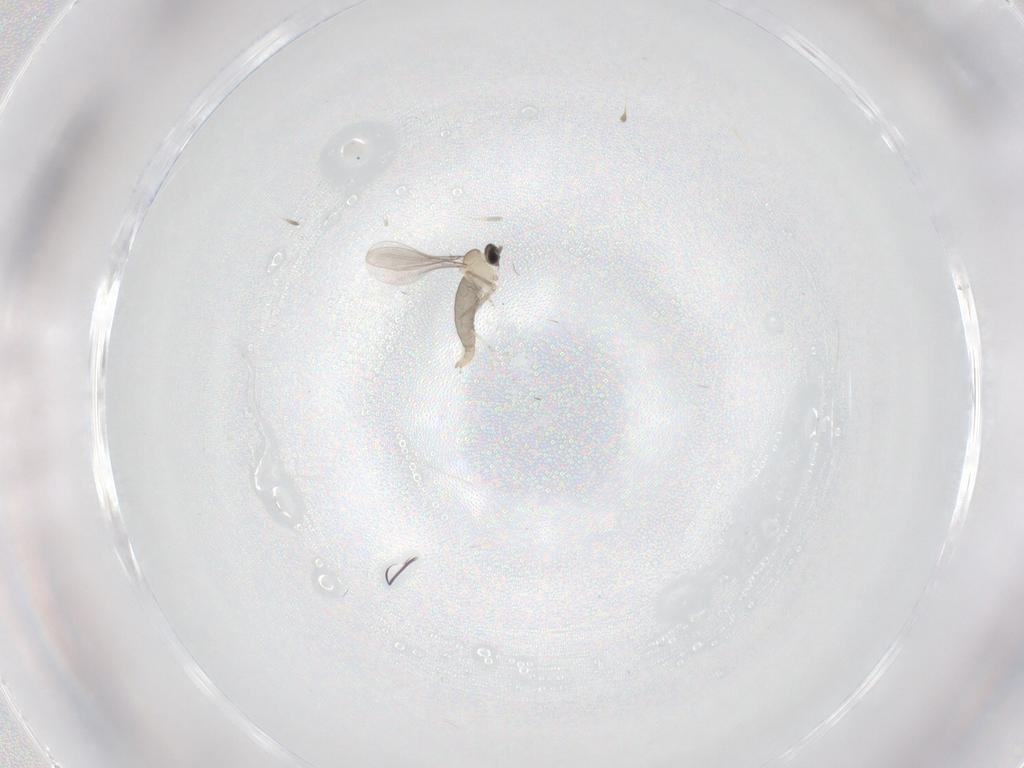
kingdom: Animalia
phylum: Arthropoda
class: Insecta
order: Diptera
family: Cecidomyiidae
